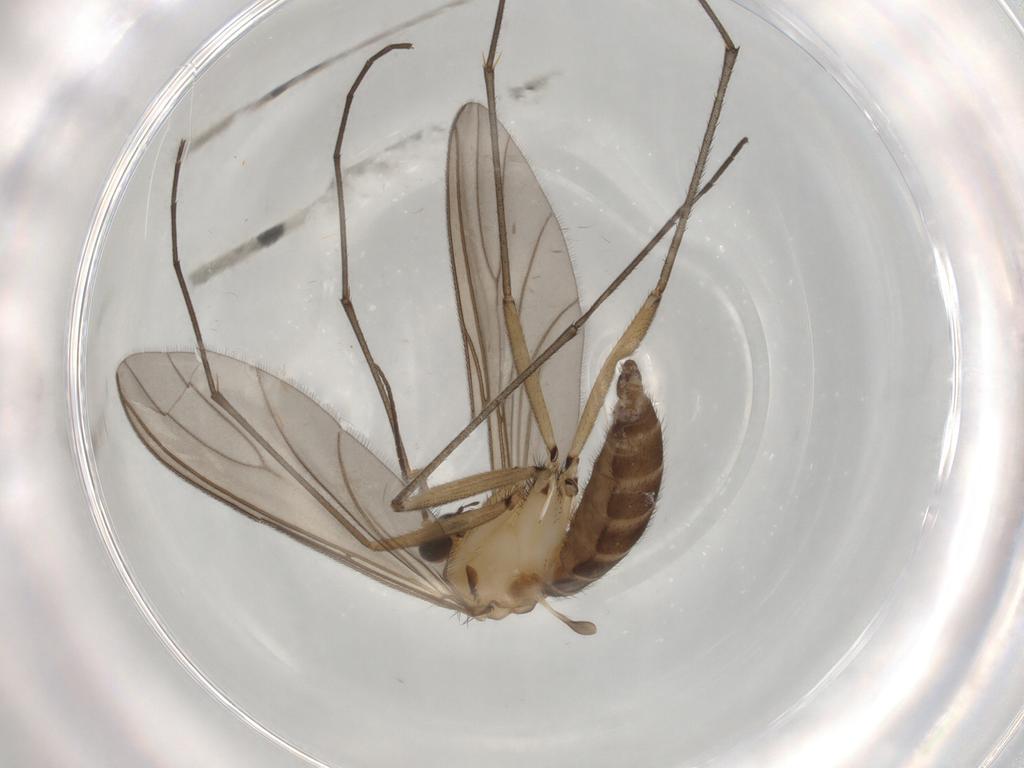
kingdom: Animalia
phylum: Arthropoda
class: Insecta
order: Diptera
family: Sciaridae
